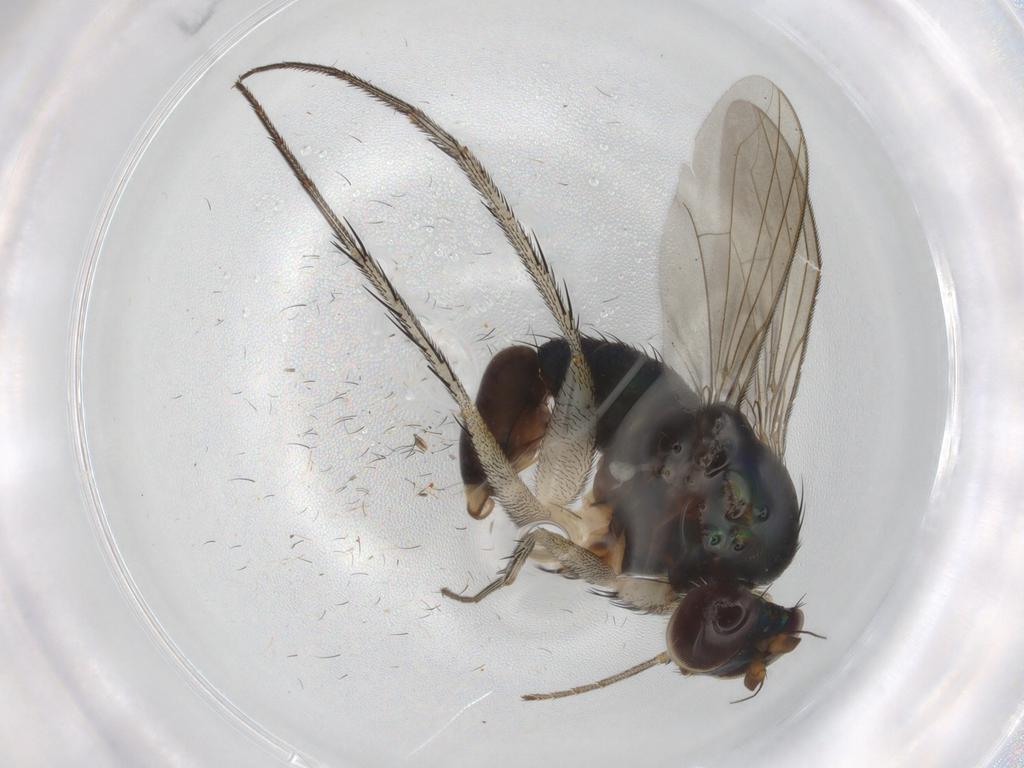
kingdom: Animalia
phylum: Arthropoda
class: Insecta
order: Diptera
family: Dolichopodidae
